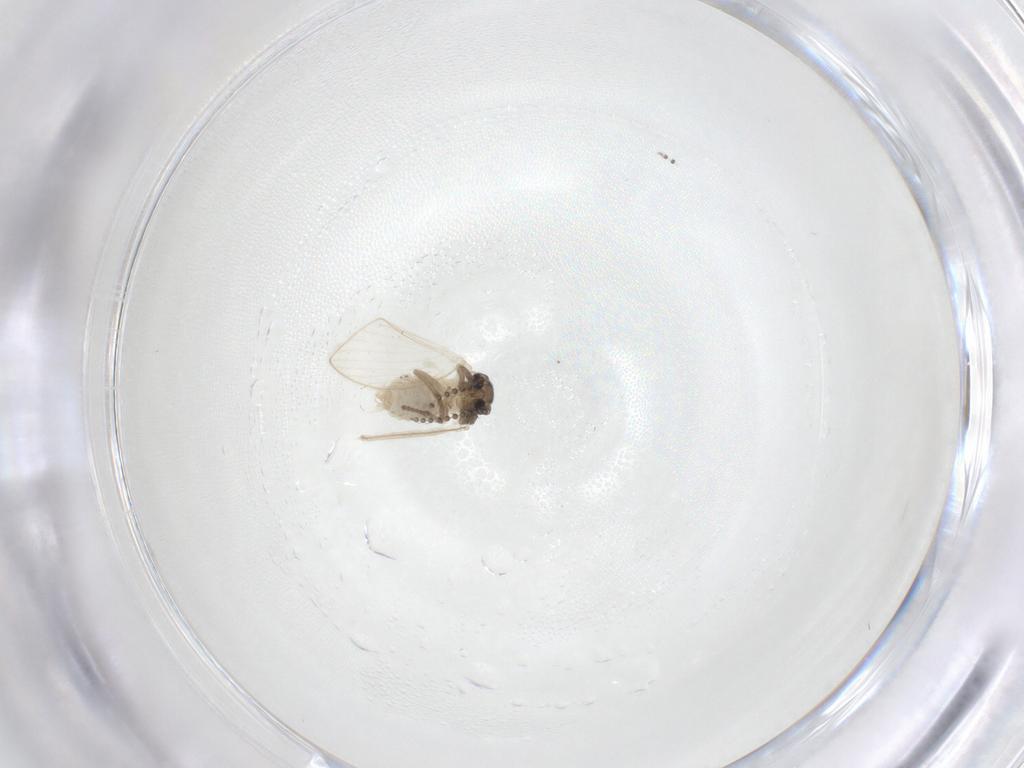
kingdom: Animalia
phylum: Arthropoda
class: Insecta
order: Diptera
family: Psychodidae
